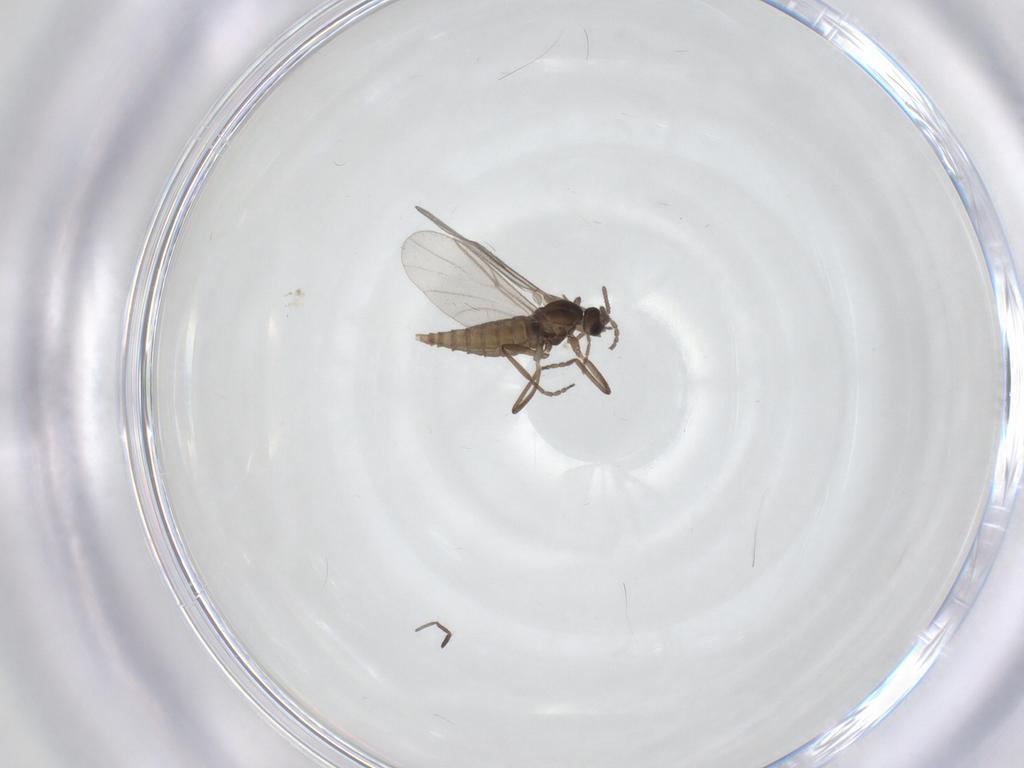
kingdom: Animalia
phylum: Arthropoda
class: Insecta
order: Diptera
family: Cecidomyiidae
